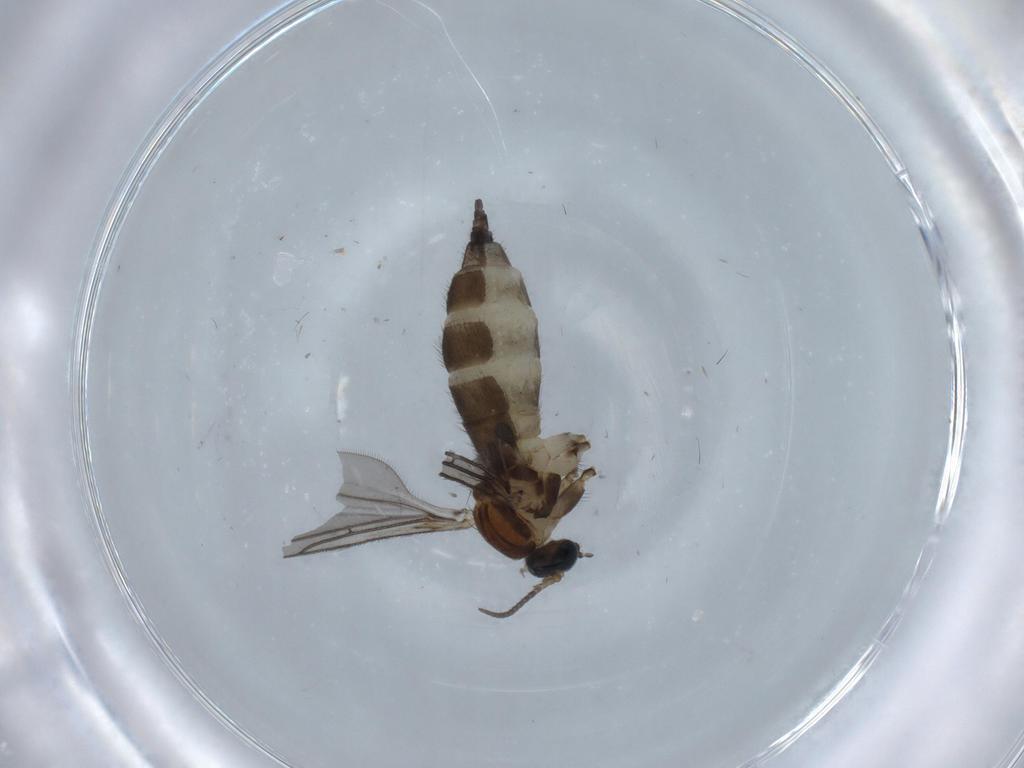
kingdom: Animalia
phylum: Arthropoda
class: Insecta
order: Diptera
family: Sciaridae
